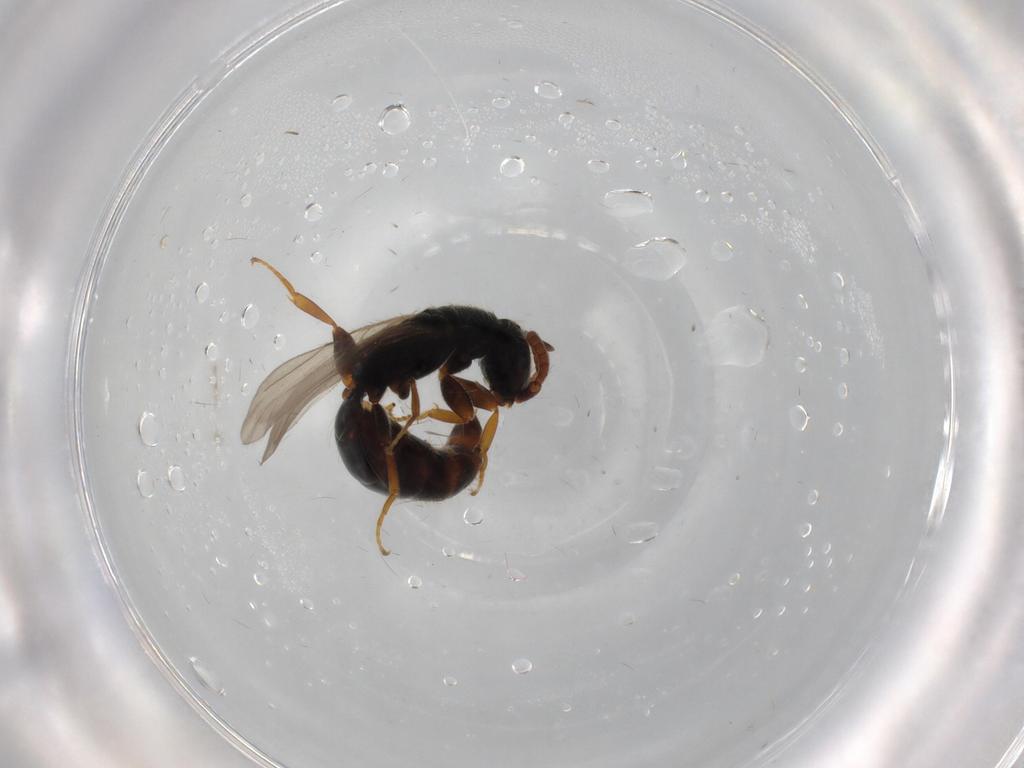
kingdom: Animalia
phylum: Arthropoda
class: Insecta
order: Hymenoptera
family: Bethylidae
